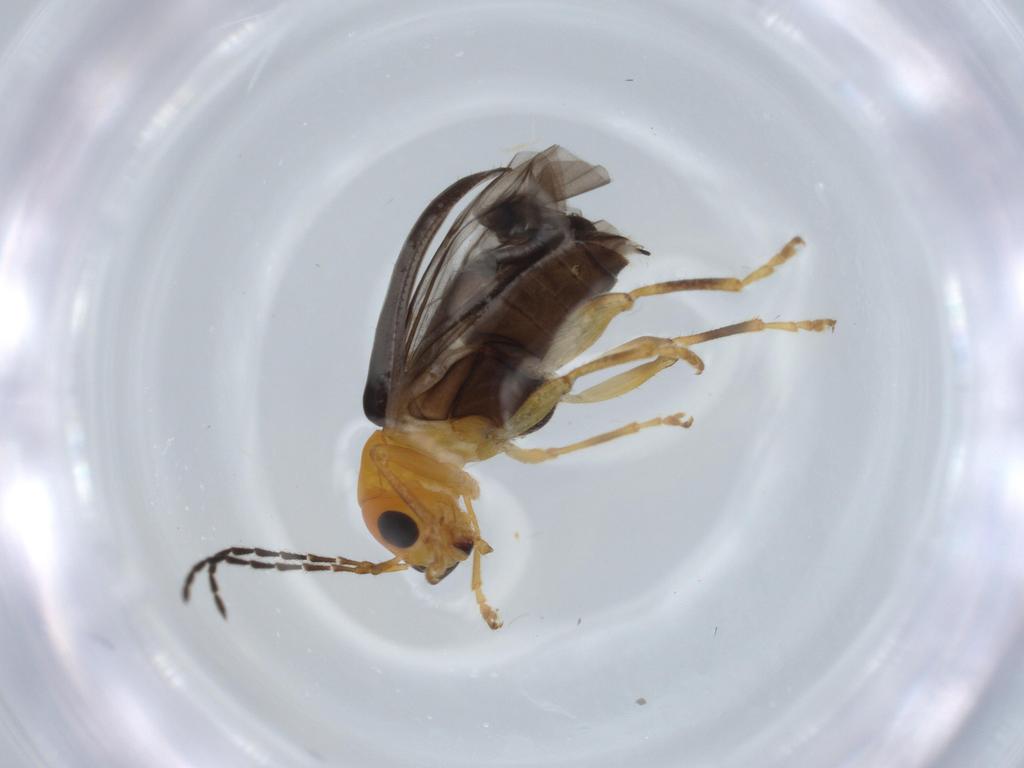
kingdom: Animalia
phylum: Arthropoda
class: Insecta
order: Coleoptera
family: Chrysomelidae
